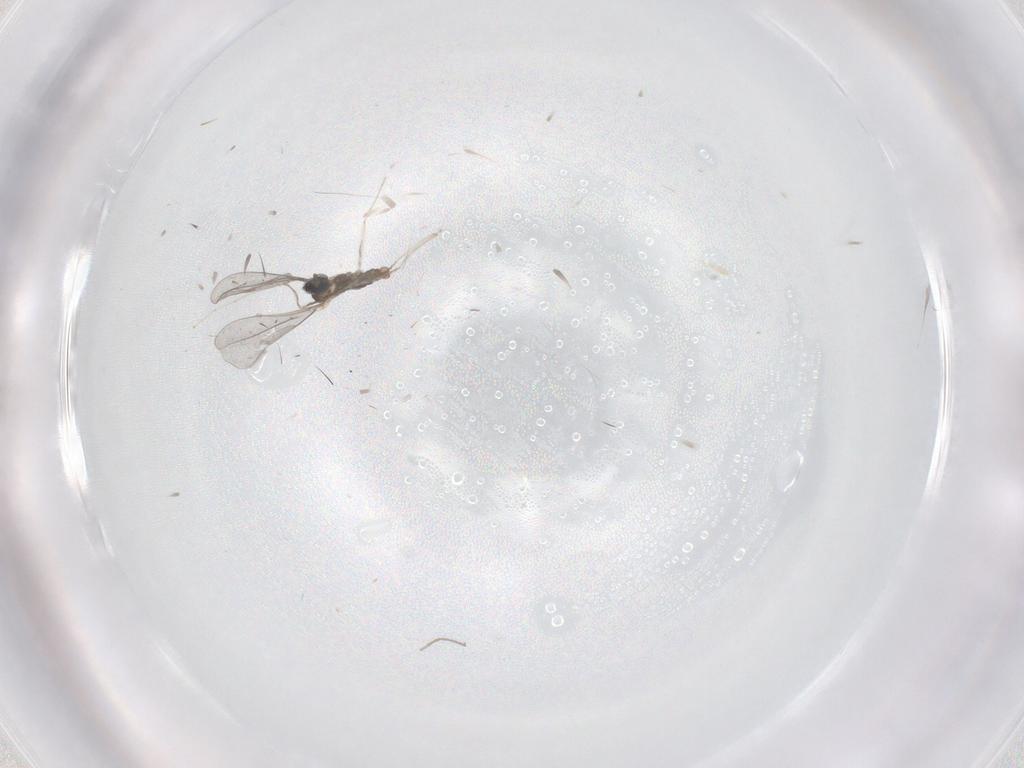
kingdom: Animalia
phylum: Arthropoda
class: Insecta
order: Diptera
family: Cecidomyiidae
